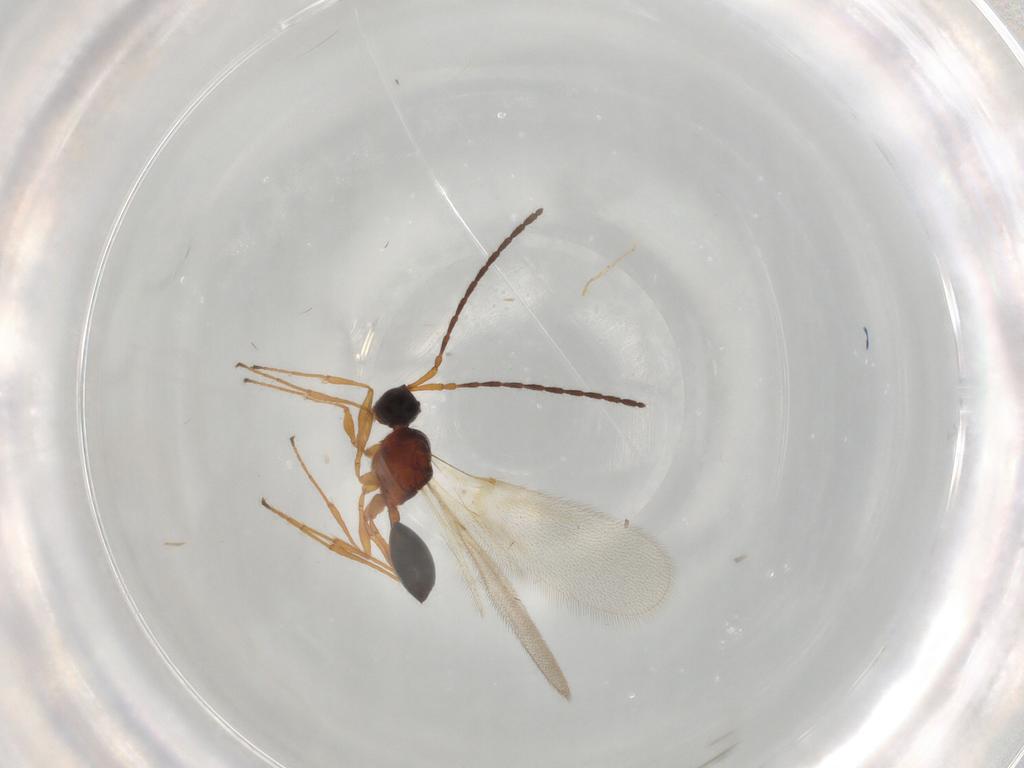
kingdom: Animalia
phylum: Arthropoda
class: Insecta
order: Hymenoptera
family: Diapriidae
